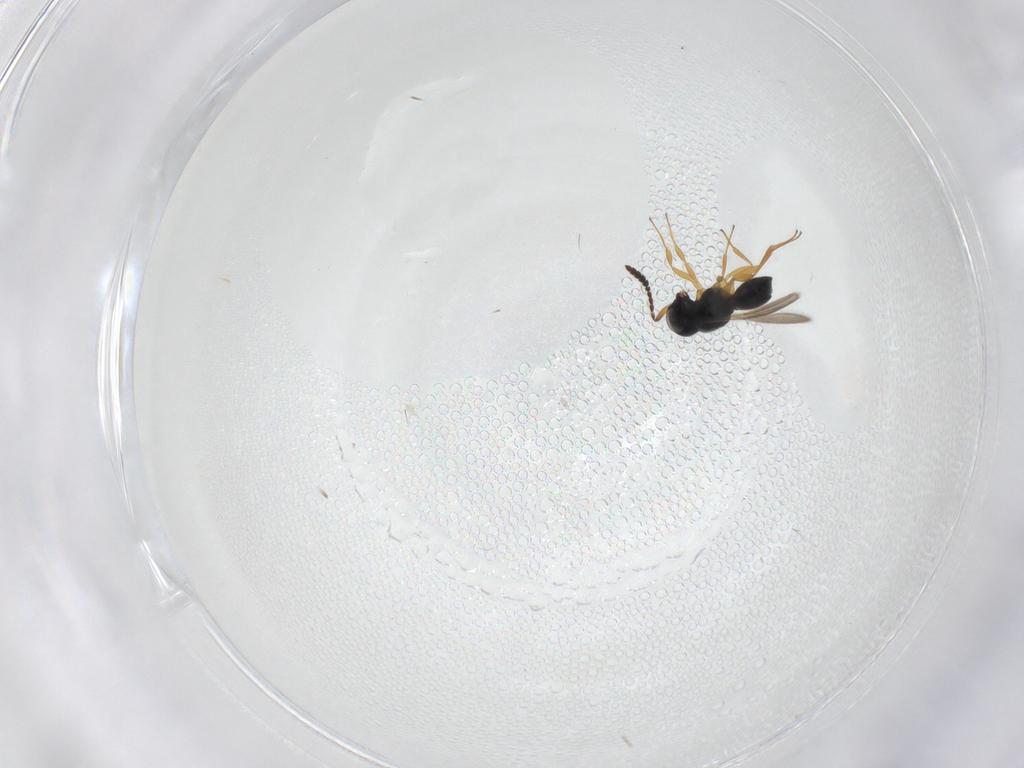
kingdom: Animalia
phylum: Arthropoda
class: Insecta
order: Hymenoptera
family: Scelionidae
